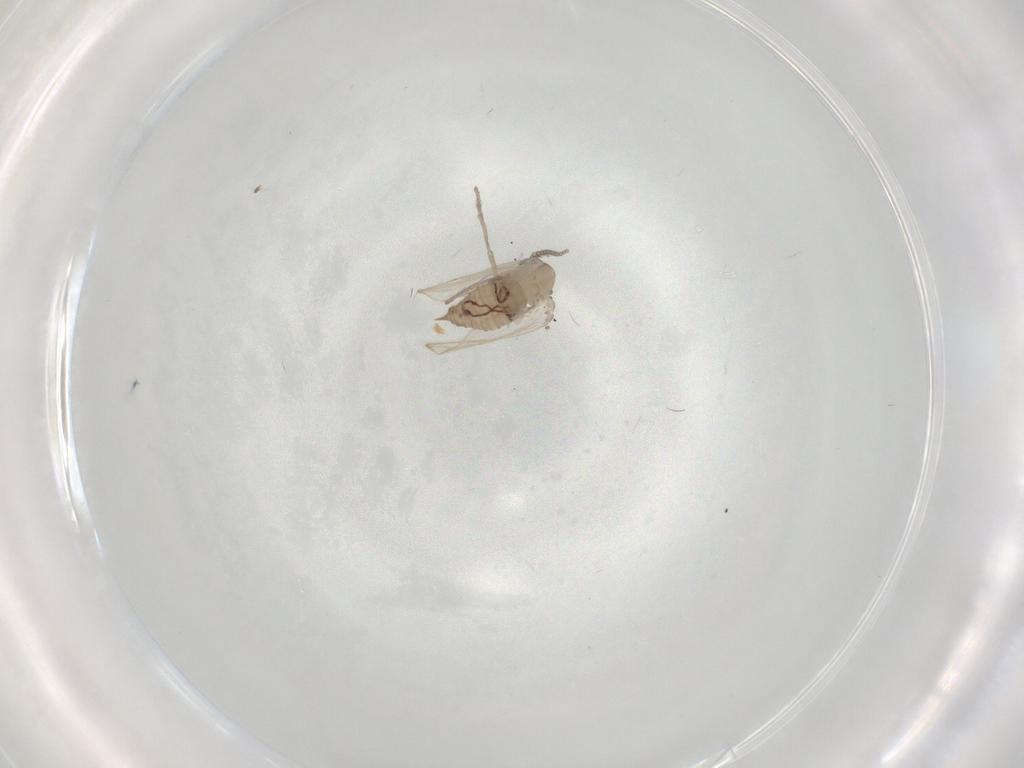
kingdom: Animalia
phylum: Arthropoda
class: Insecta
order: Diptera
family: Psychodidae
